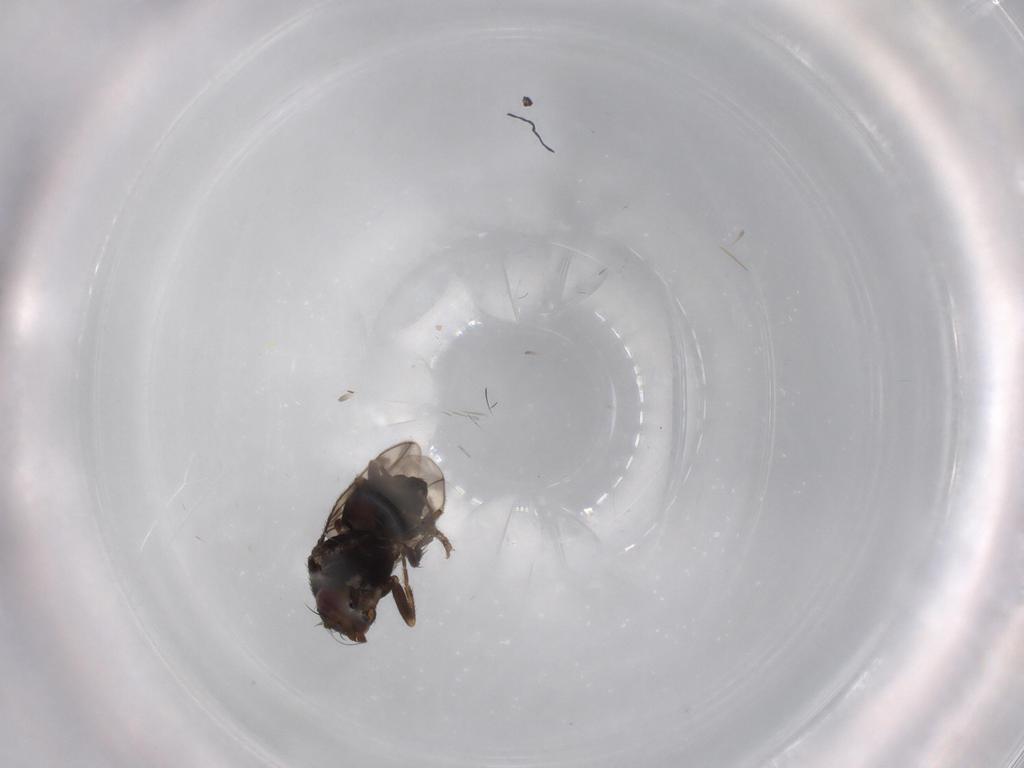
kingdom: Animalia
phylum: Arthropoda
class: Insecta
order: Diptera
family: Sphaeroceridae
